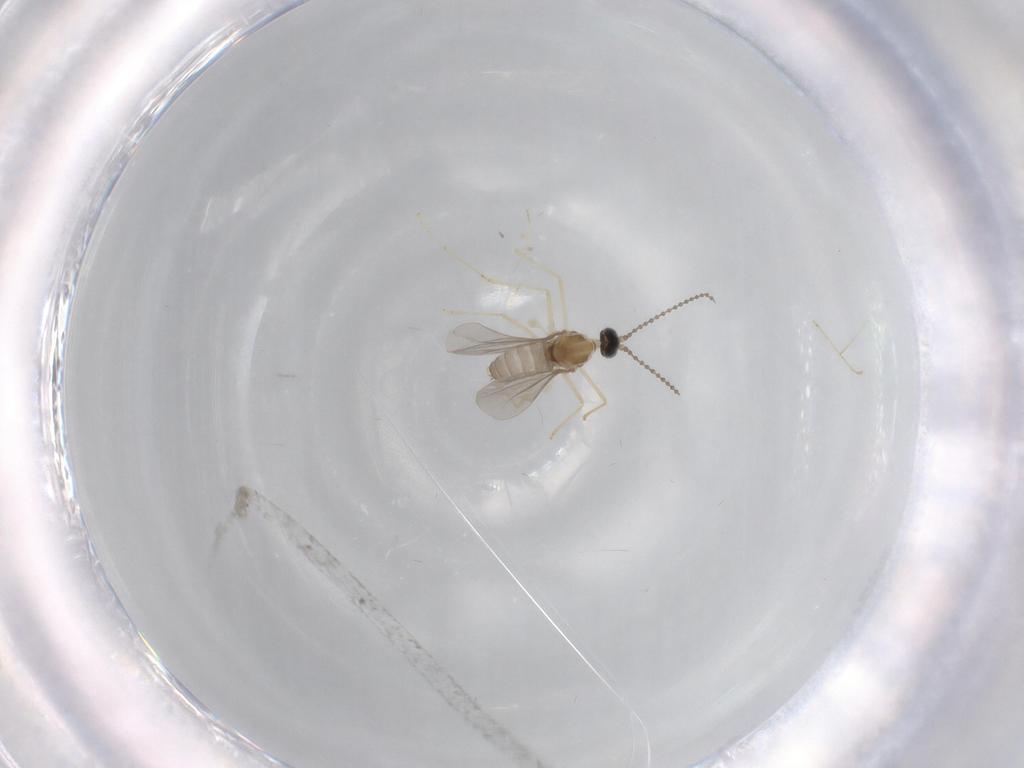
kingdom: Animalia
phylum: Arthropoda
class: Insecta
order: Diptera
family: Cecidomyiidae
